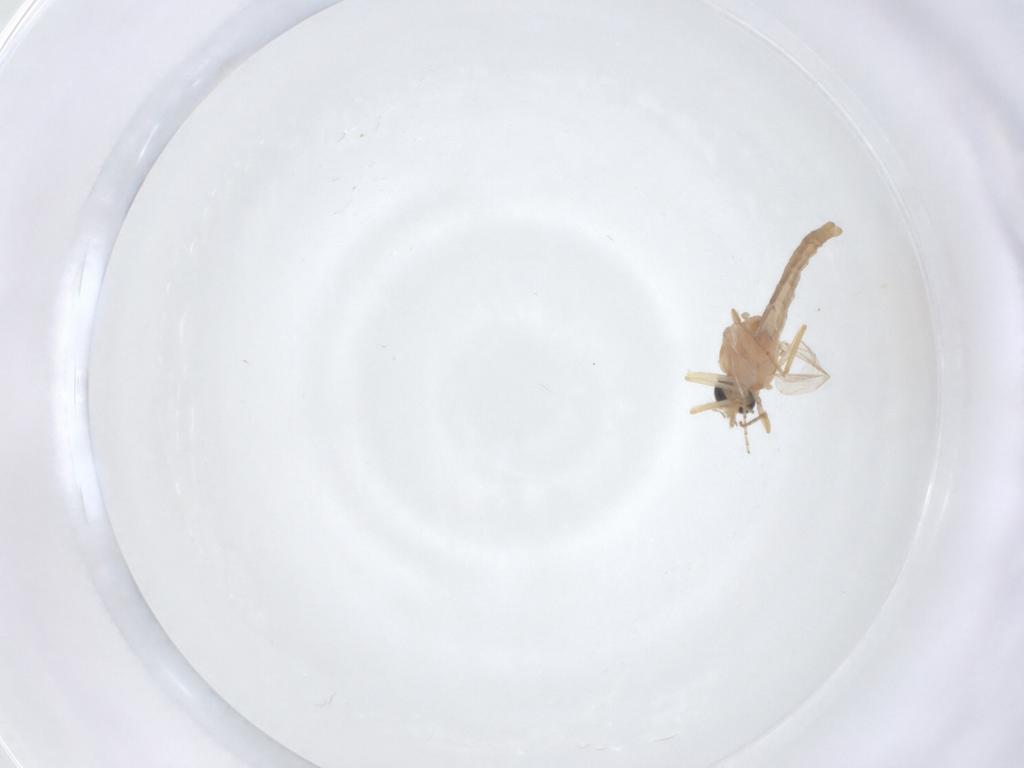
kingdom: Animalia
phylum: Arthropoda
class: Insecta
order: Diptera
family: Ceratopogonidae
